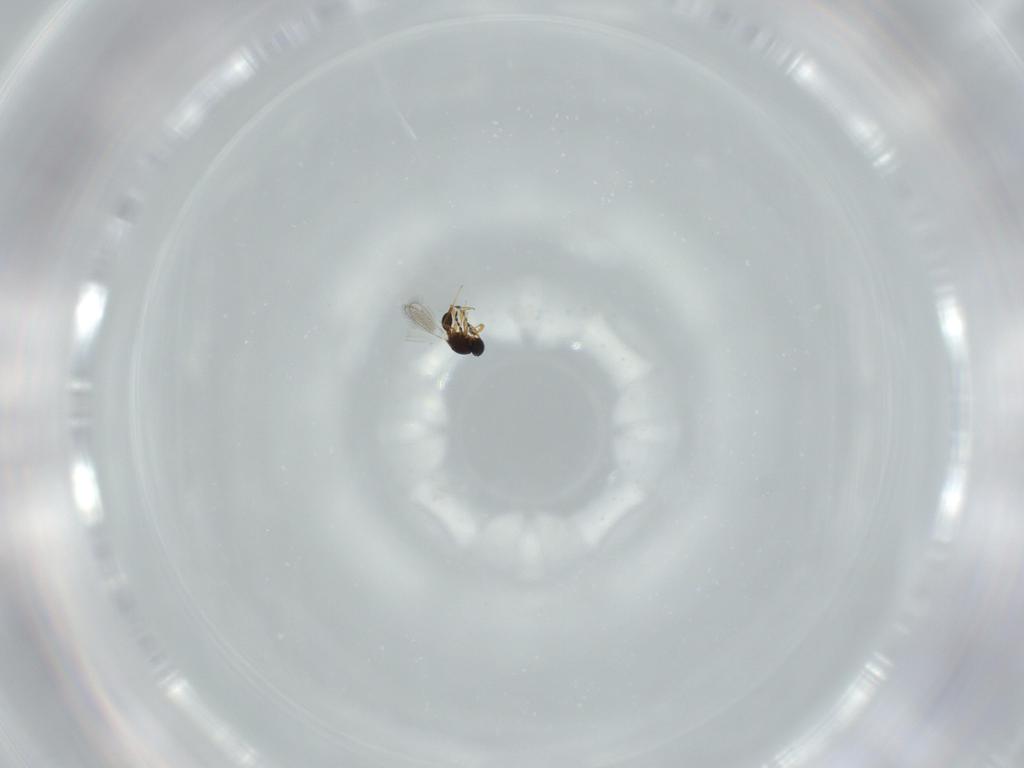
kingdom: Animalia
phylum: Arthropoda
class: Insecta
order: Hymenoptera
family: Platygastridae
